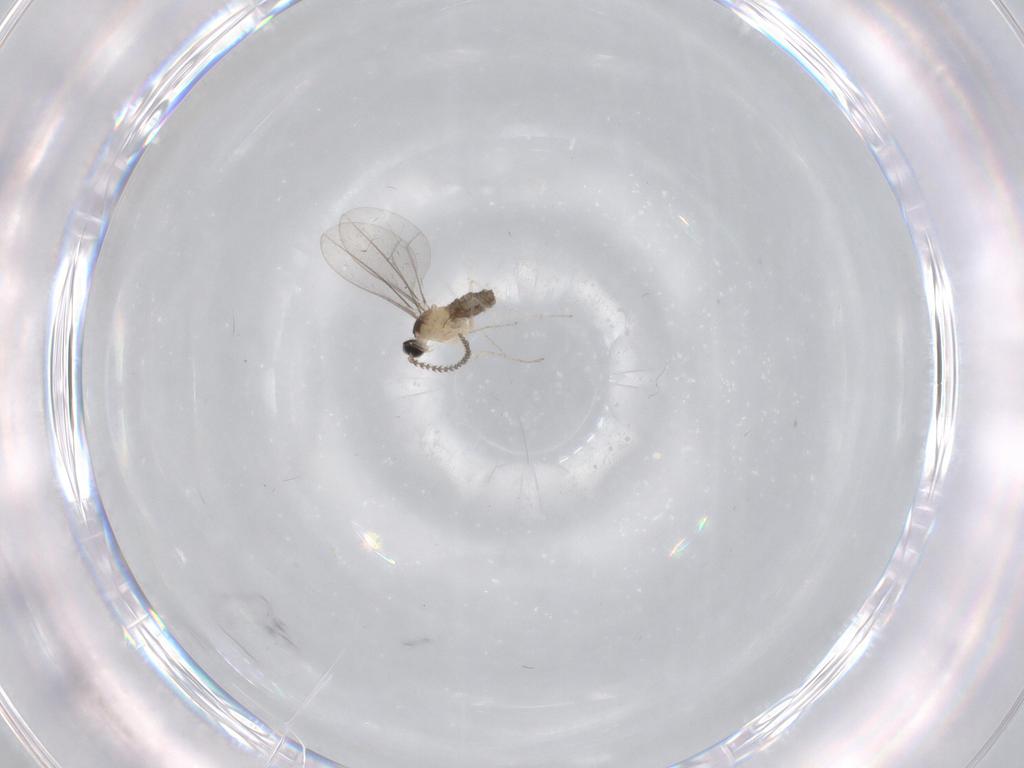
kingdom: Animalia
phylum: Arthropoda
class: Insecta
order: Diptera
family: Cecidomyiidae
